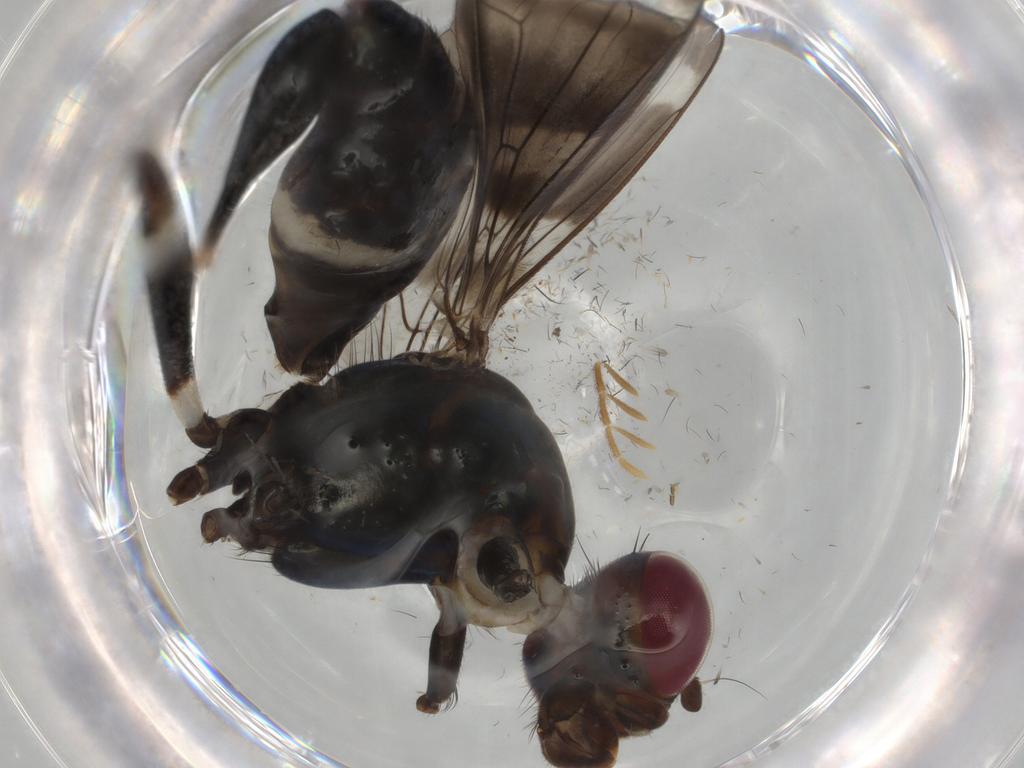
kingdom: Animalia
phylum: Arthropoda
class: Insecta
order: Diptera
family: Micropezidae
